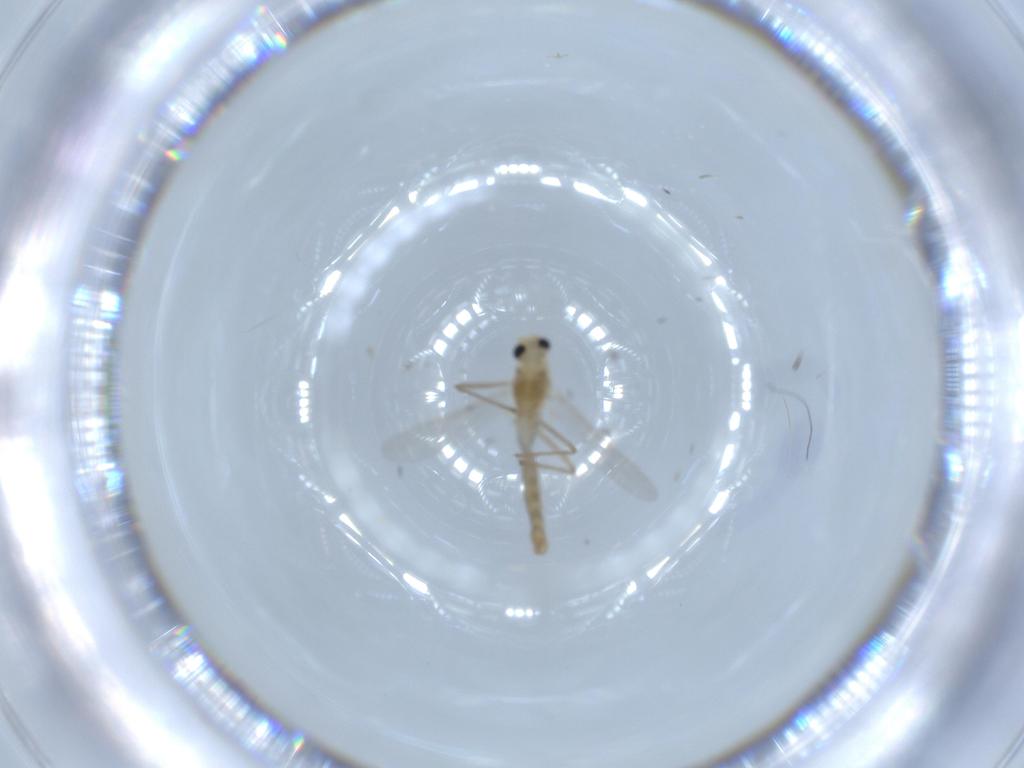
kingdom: Animalia
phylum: Arthropoda
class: Insecta
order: Diptera
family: Chironomidae
